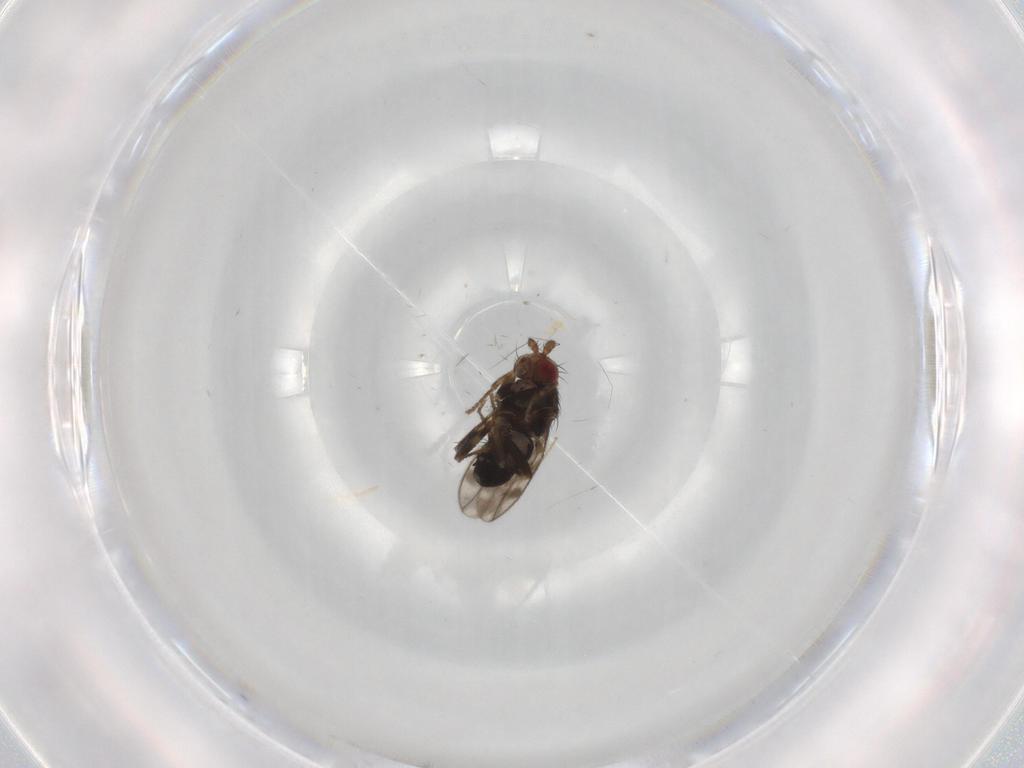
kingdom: Animalia
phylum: Arthropoda
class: Insecta
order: Diptera
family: Sphaeroceridae
